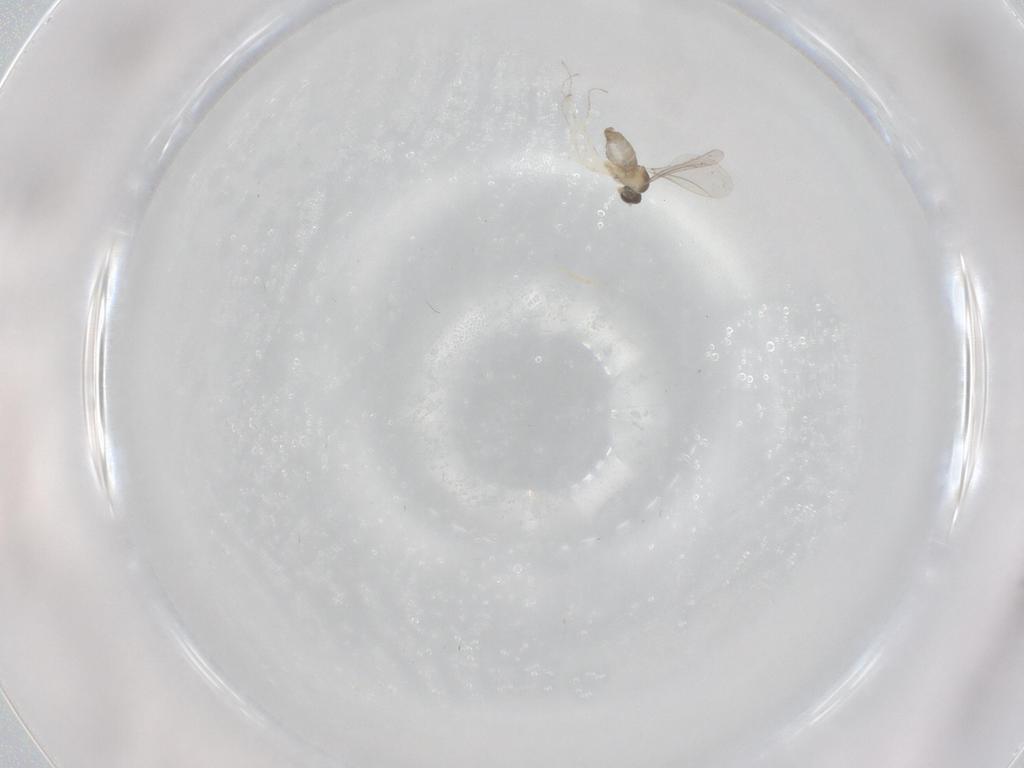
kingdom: Animalia
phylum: Arthropoda
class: Insecta
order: Diptera
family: Cecidomyiidae
